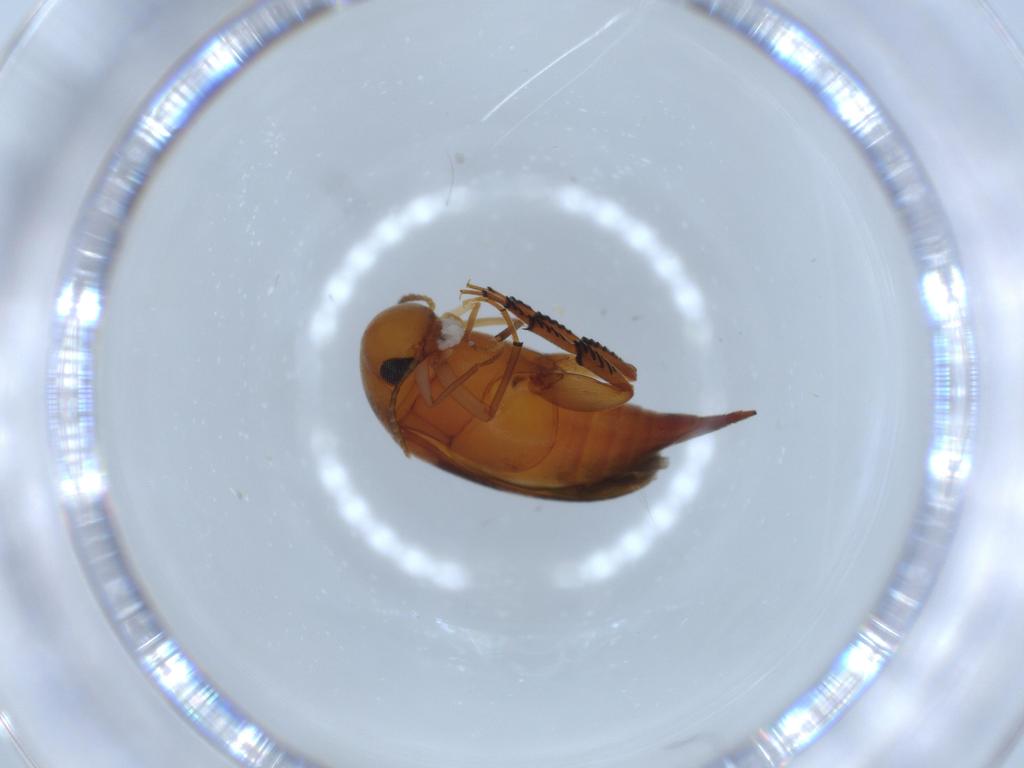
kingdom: Animalia
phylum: Arthropoda
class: Insecta
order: Coleoptera
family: Mordellidae
